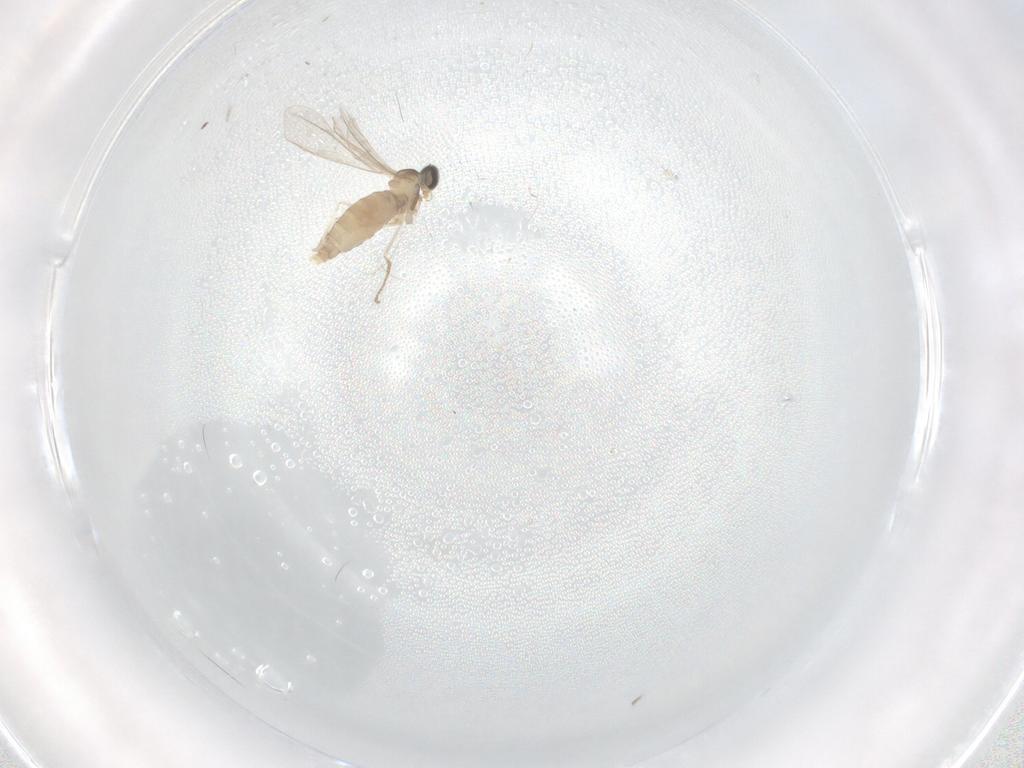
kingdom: Animalia
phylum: Arthropoda
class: Insecta
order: Diptera
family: Cecidomyiidae
